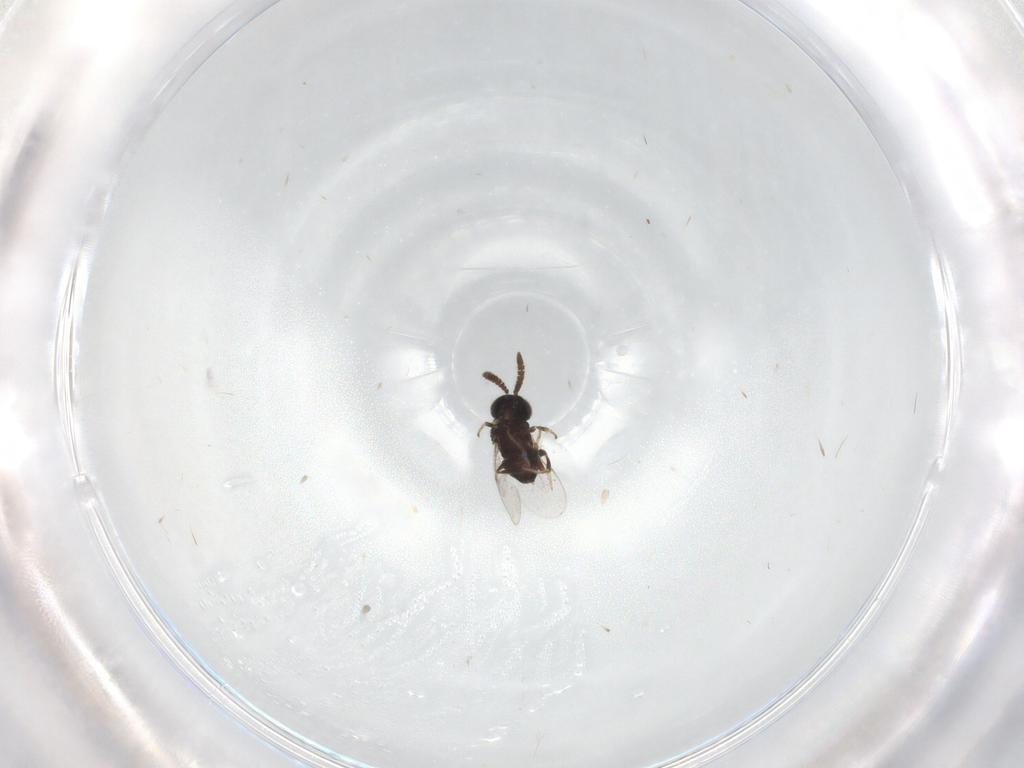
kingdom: Animalia
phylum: Arthropoda
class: Insecta
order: Hymenoptera
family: Encyrtidae
